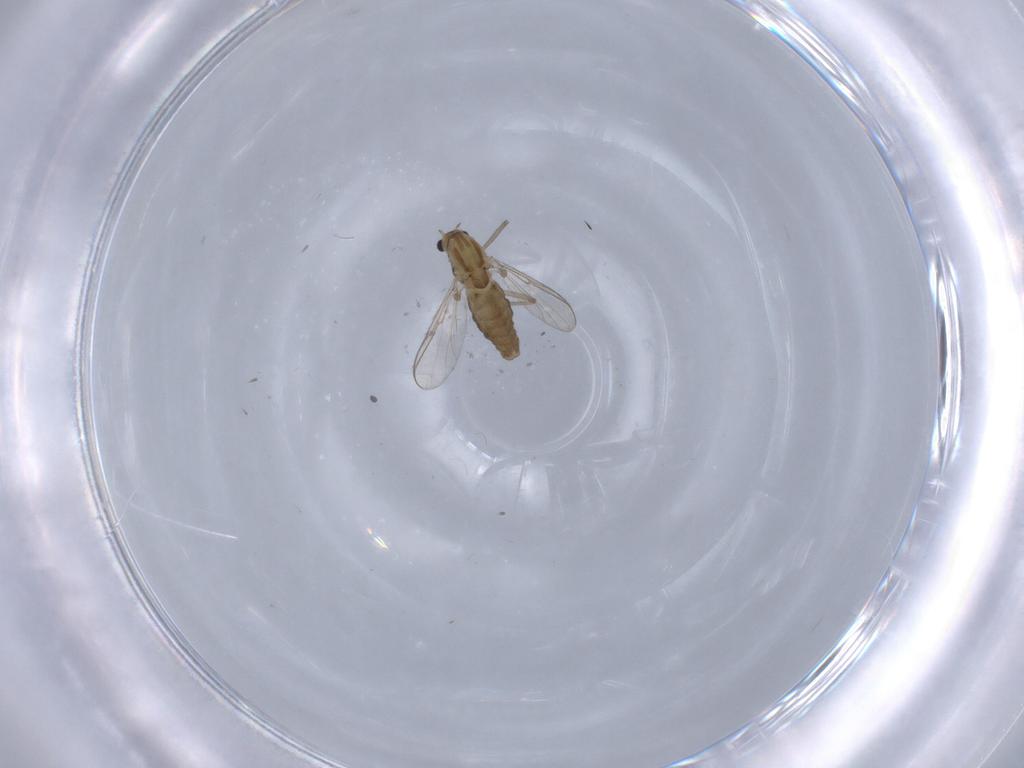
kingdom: Animalia
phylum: Arthropoda
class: Insecta
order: Diptera
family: Chironomidae
